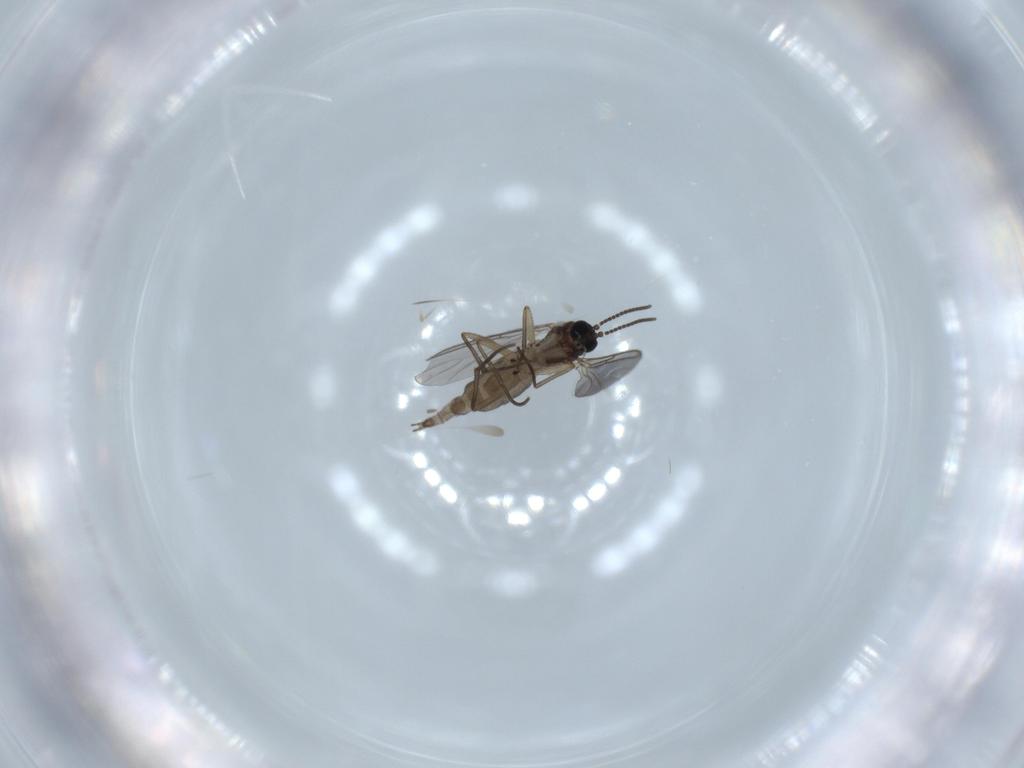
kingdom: Animalia
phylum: Arthropoda
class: Insecta
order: Diptera
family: Sciaridae
